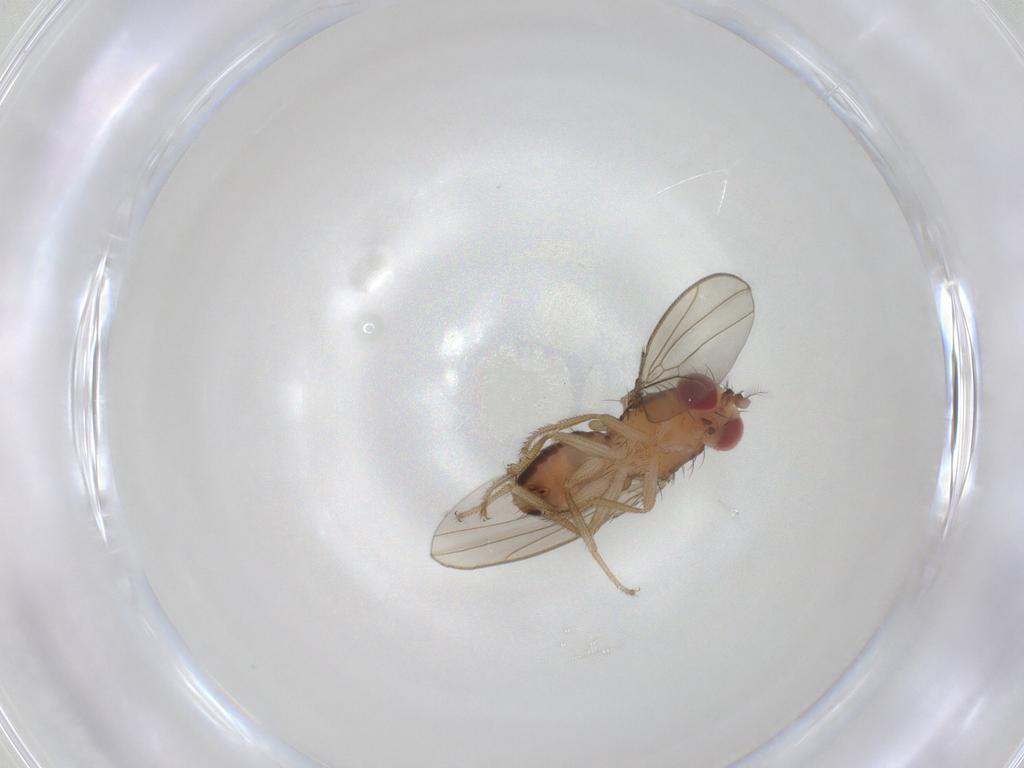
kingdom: Animalia
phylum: Arthropoda
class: Insecta
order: Diptera
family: Drosophilidae
